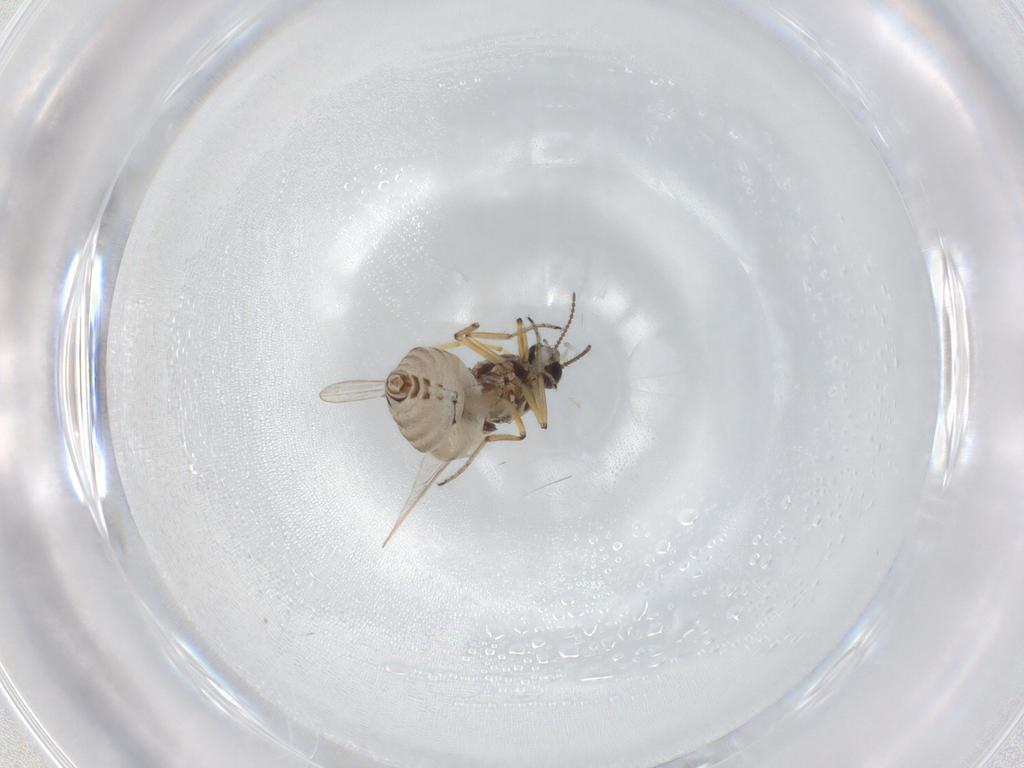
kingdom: Animalia
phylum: Arthropoda
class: Insecta
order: Diptera
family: Ceratopogonidae
